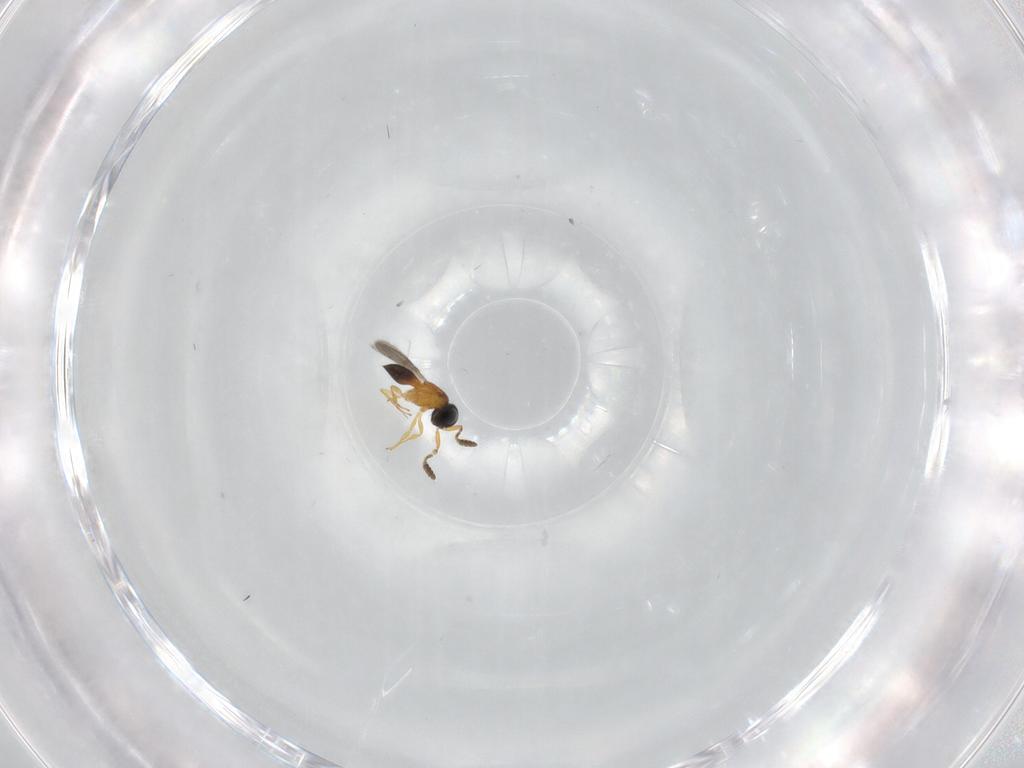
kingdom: Animalia
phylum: Arthropoda
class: Insecta
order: Hymenoptera
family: Scelionidae
